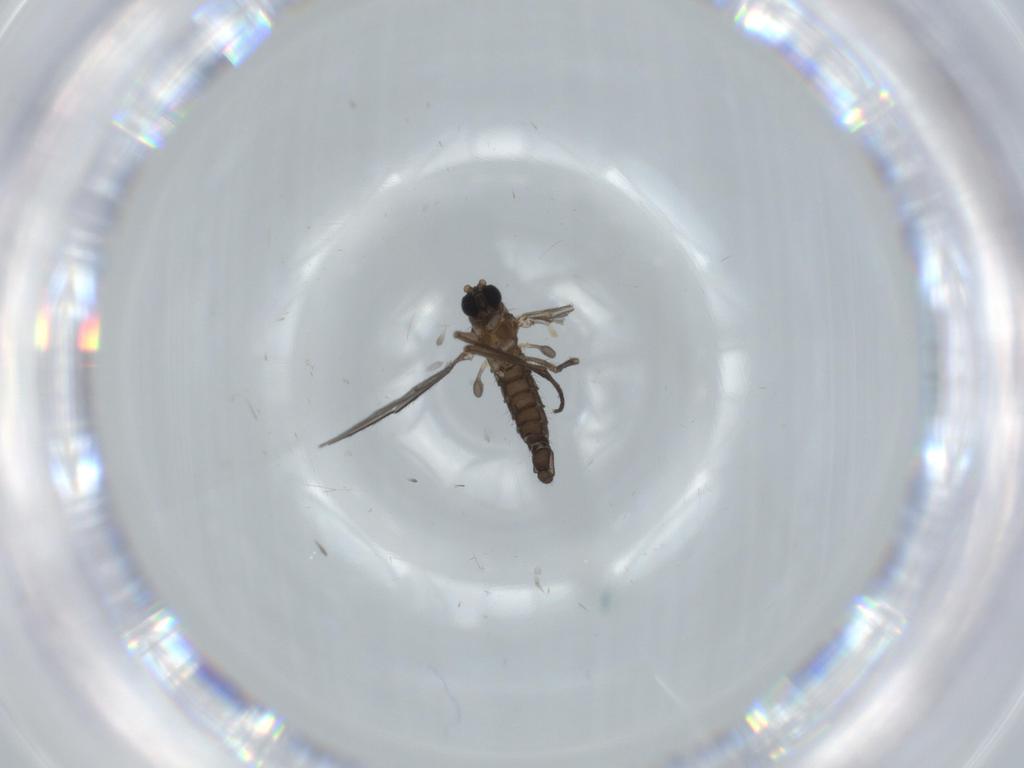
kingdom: Animalia
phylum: Arthropoda
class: Insecta
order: Diptera
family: Sciaridae
